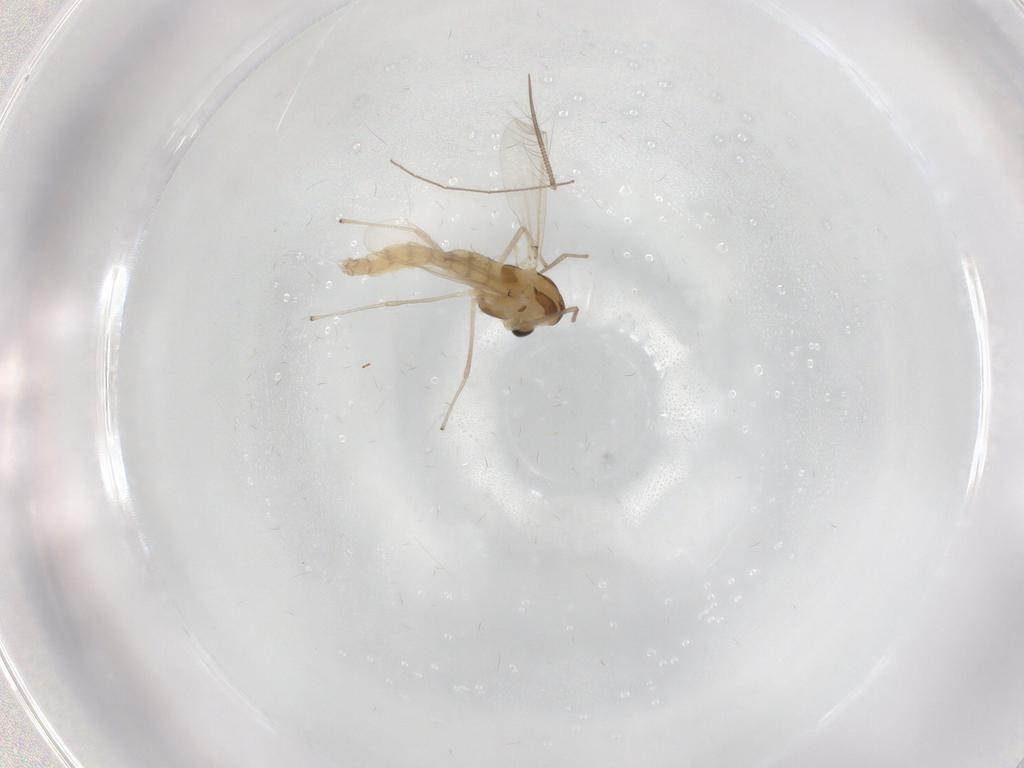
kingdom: Animalia
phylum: Arthropoda
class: Insecta
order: Diptera
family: Chironomidae
